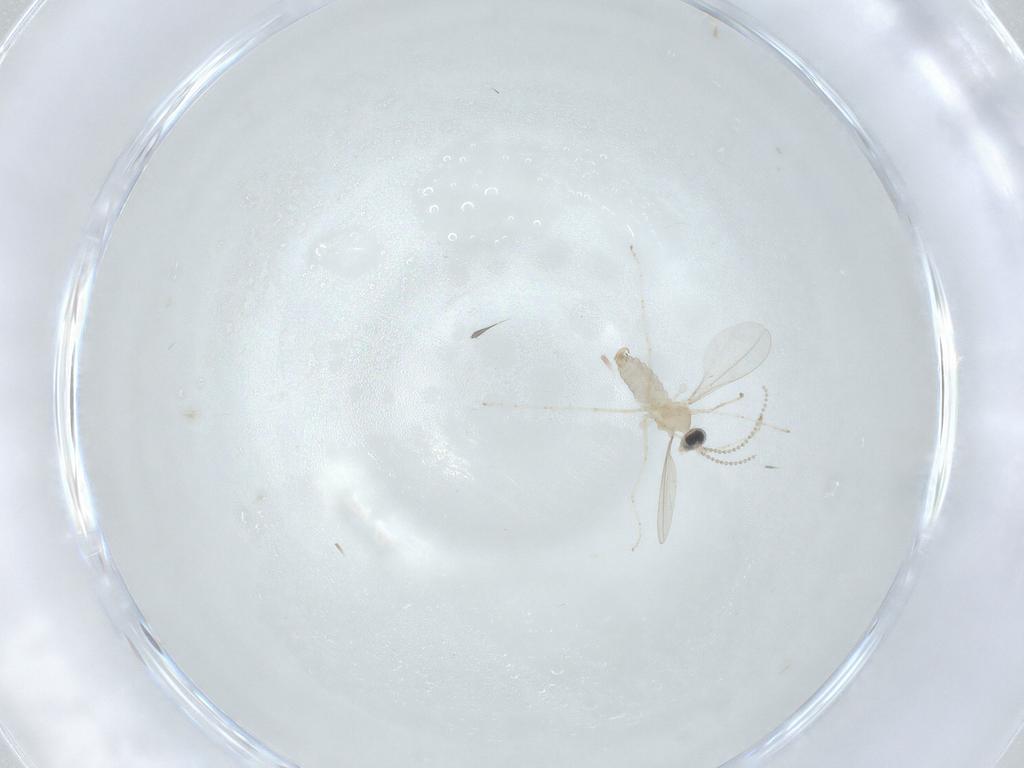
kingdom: Animalia
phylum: Arthropoda
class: Insecta
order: Diptera
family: Cecidomyiidae
